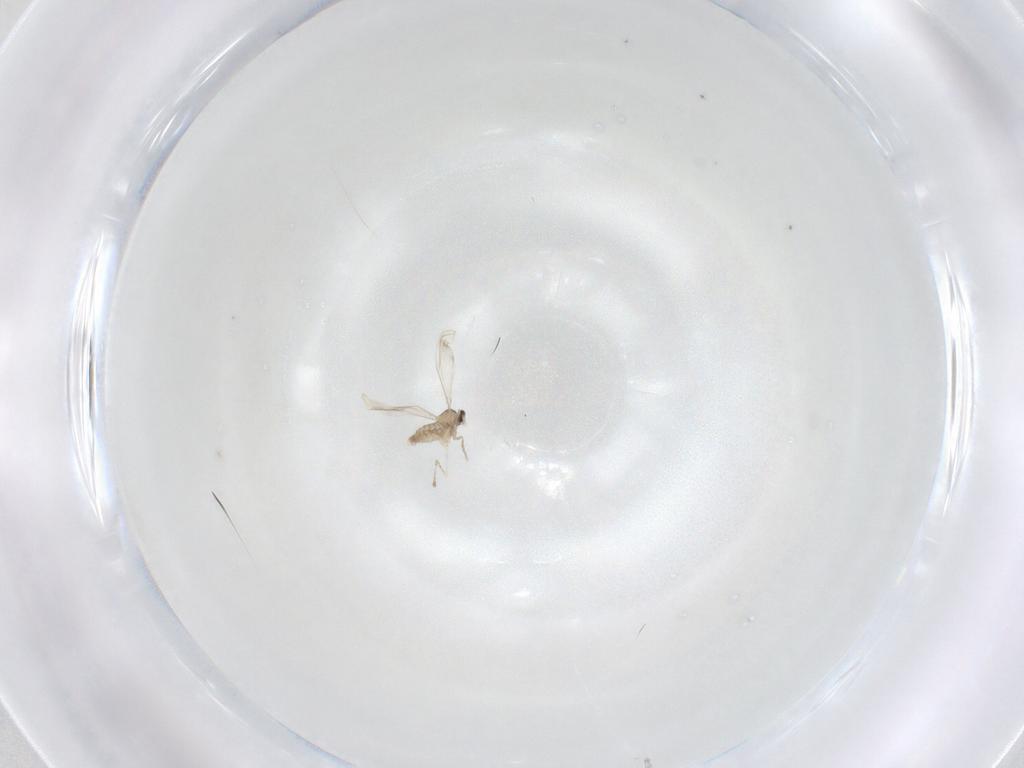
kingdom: Animalia
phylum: Arthropoda
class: Insecta
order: Diptera
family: Cecidomyiidae
